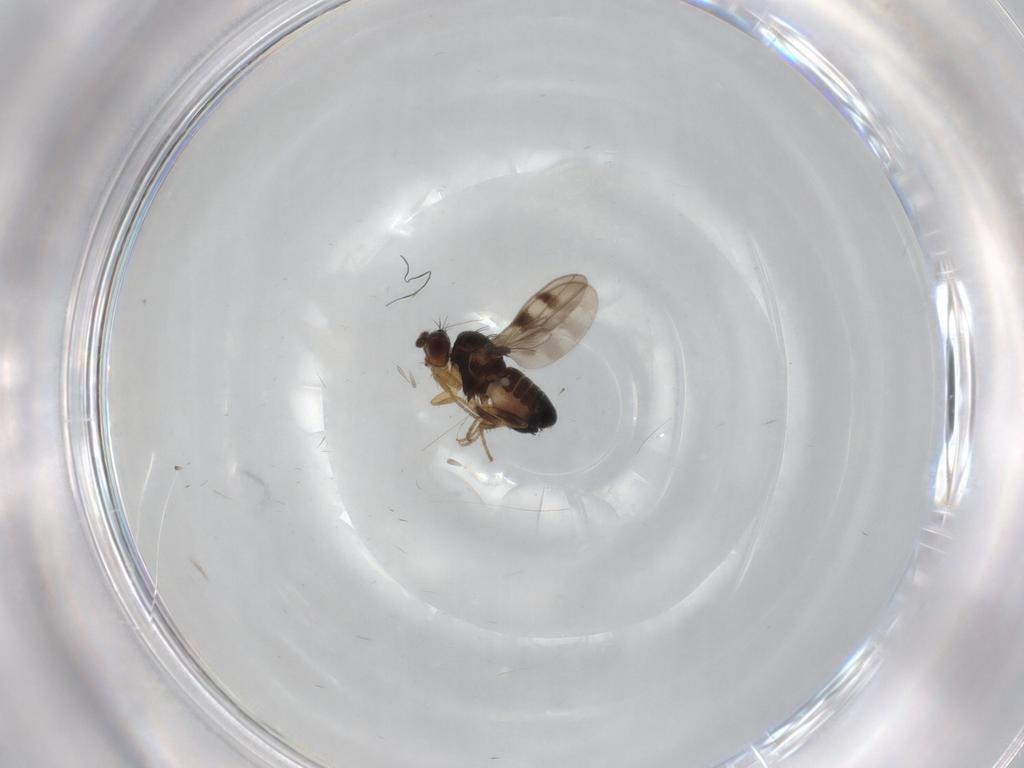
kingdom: Animalia
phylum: Arthropoda
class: Insecta
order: Diptera
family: Sphaeroceridae
